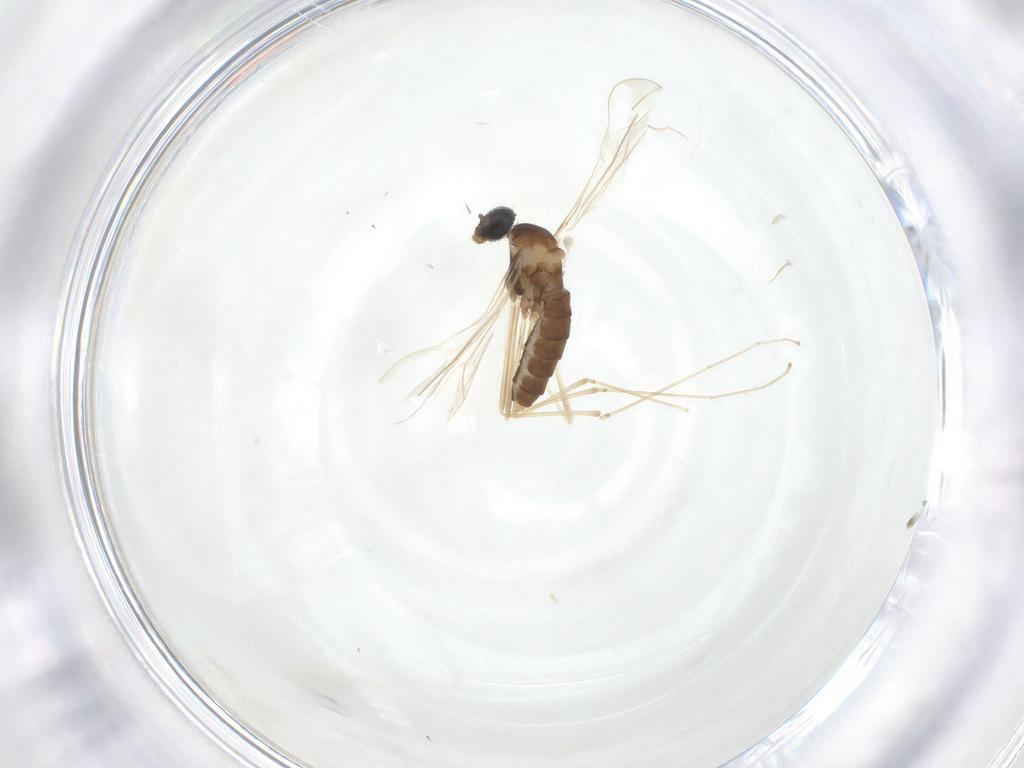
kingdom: Animalia
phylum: Arthropoda
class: Insecta
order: Diptera
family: Cecidomyiidae
